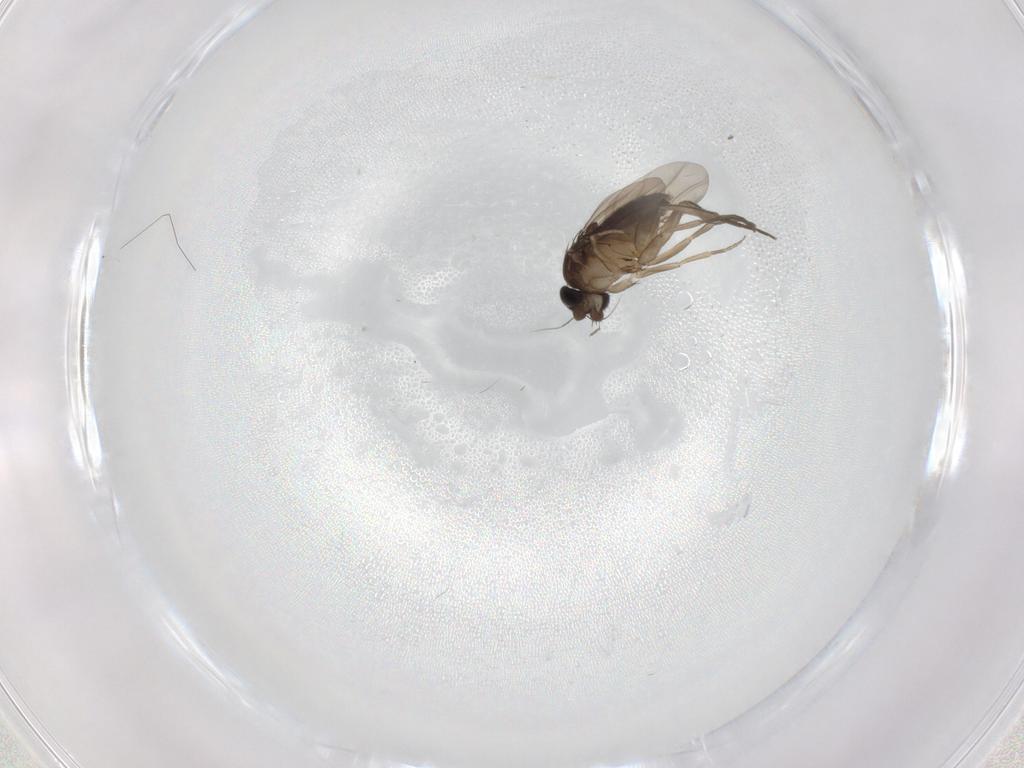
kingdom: Animalia
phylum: Arthropoda
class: Insecta
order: Diptera
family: Phoridae
